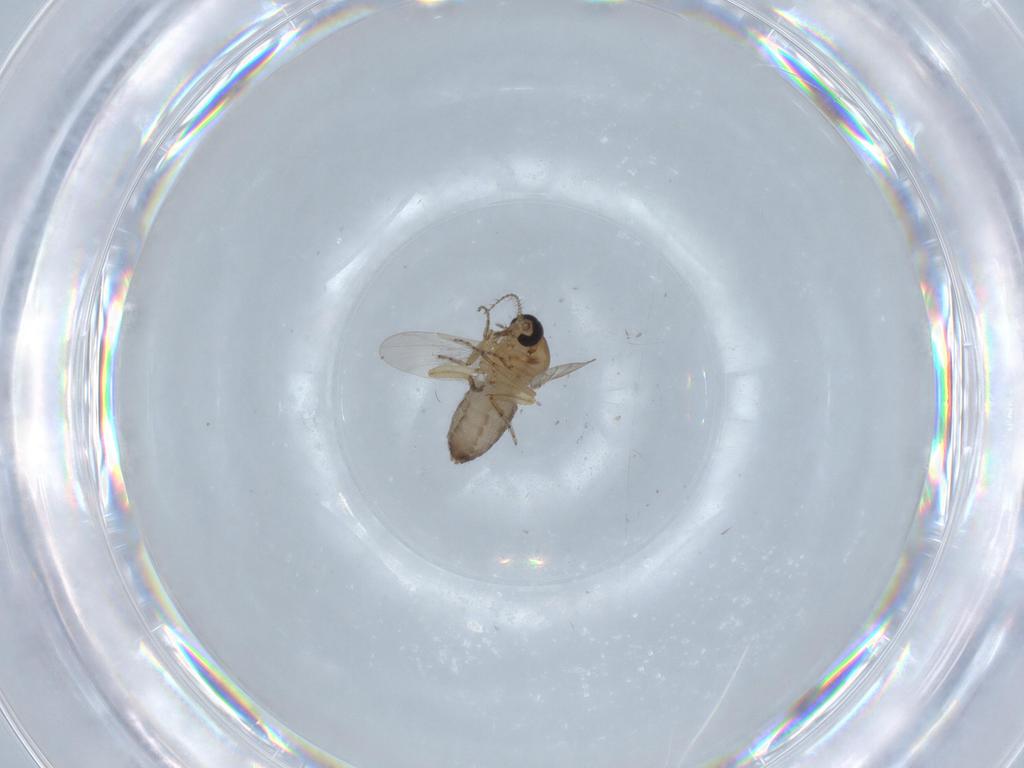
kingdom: Animalia
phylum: Arthropoda
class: Insecta
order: Diptera
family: Ceratopogonidae
